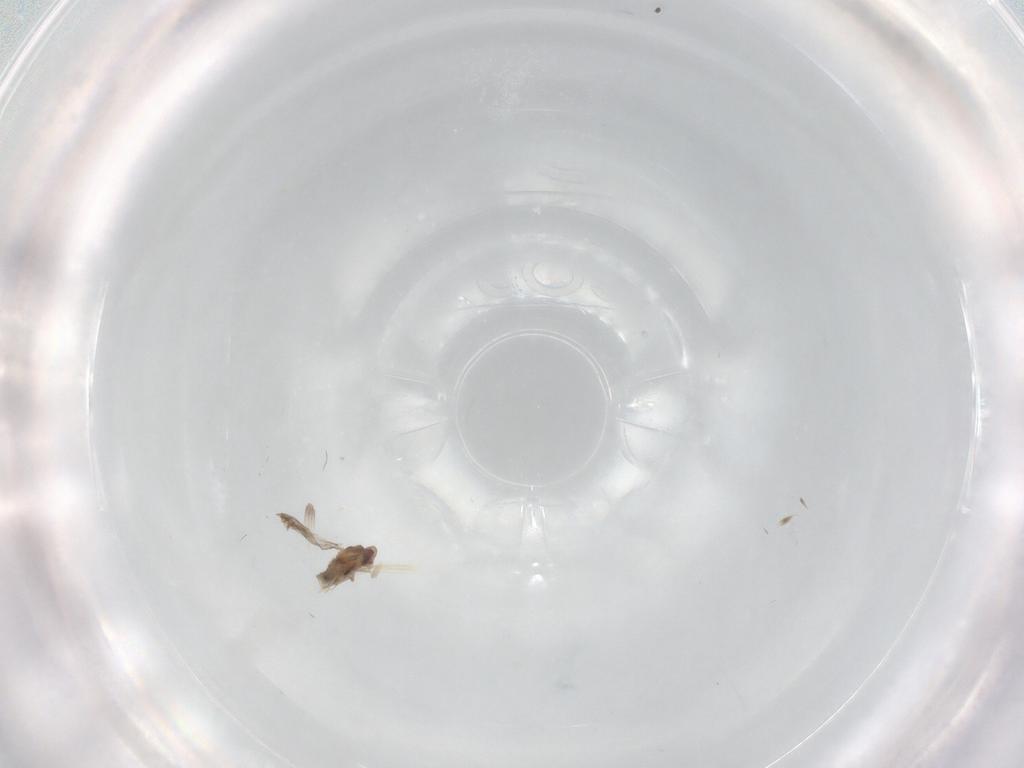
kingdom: Animalia
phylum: Arthropoda
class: Insecta
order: Diptera
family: Cecidomyiidae
